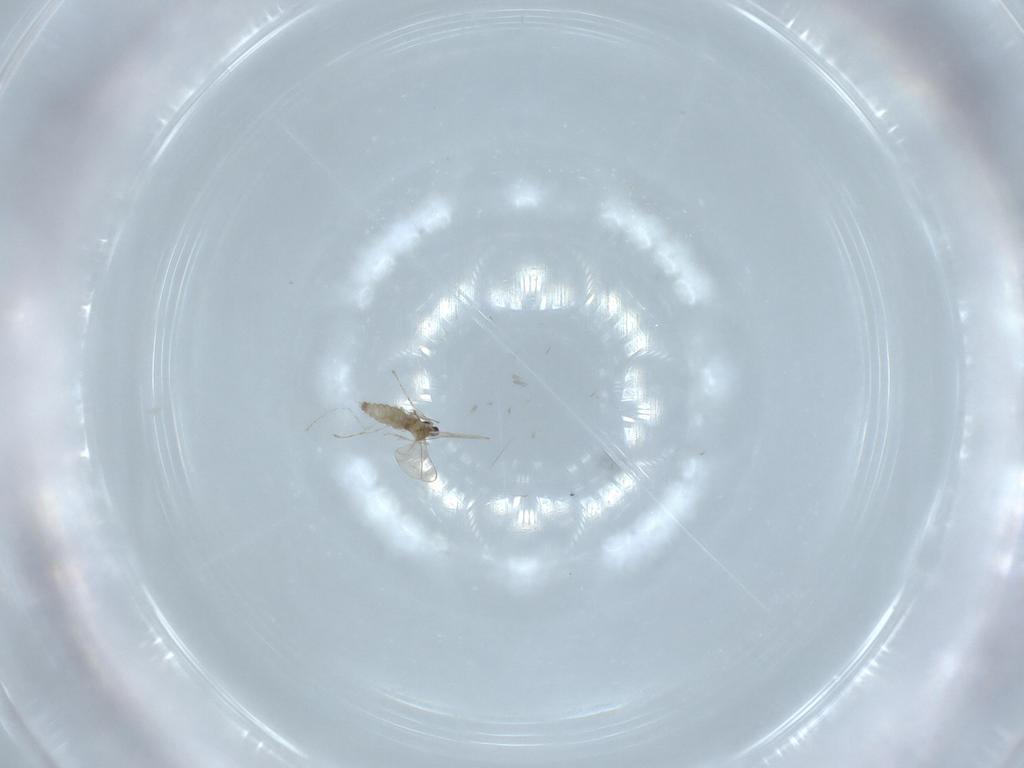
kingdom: Animalia
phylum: Arthropoda
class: Insecta
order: Diptera
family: Cecidomyiidae
